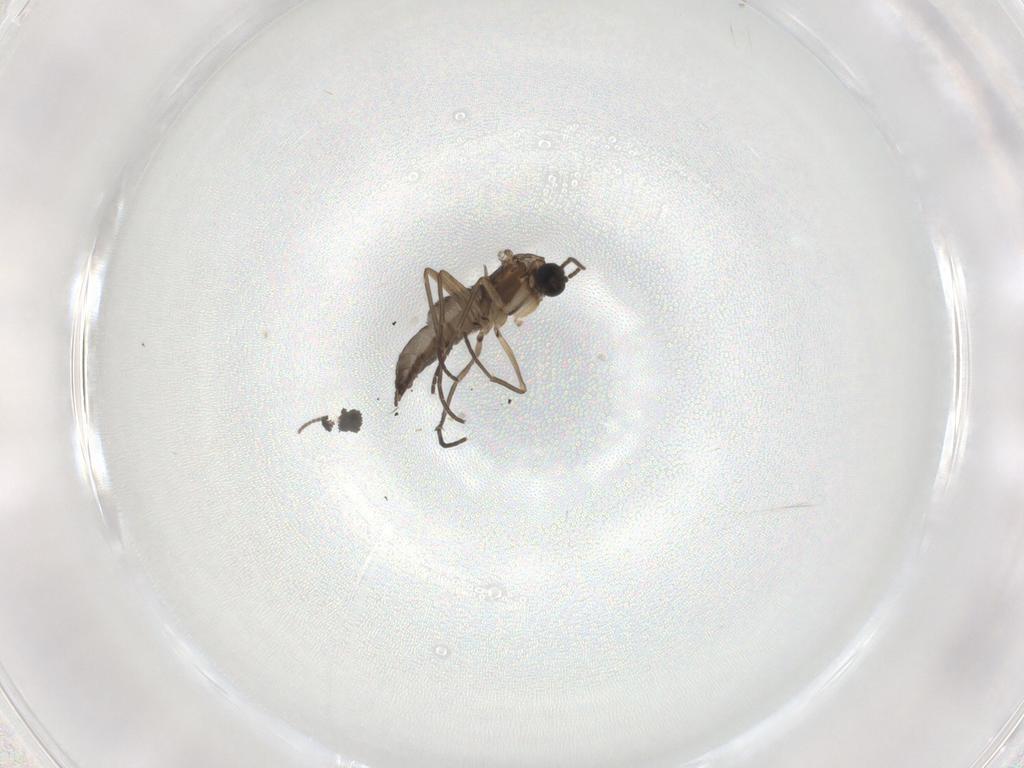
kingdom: Animalia
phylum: Arthropoda
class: Insecta
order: Diptera
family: Sciaridae
